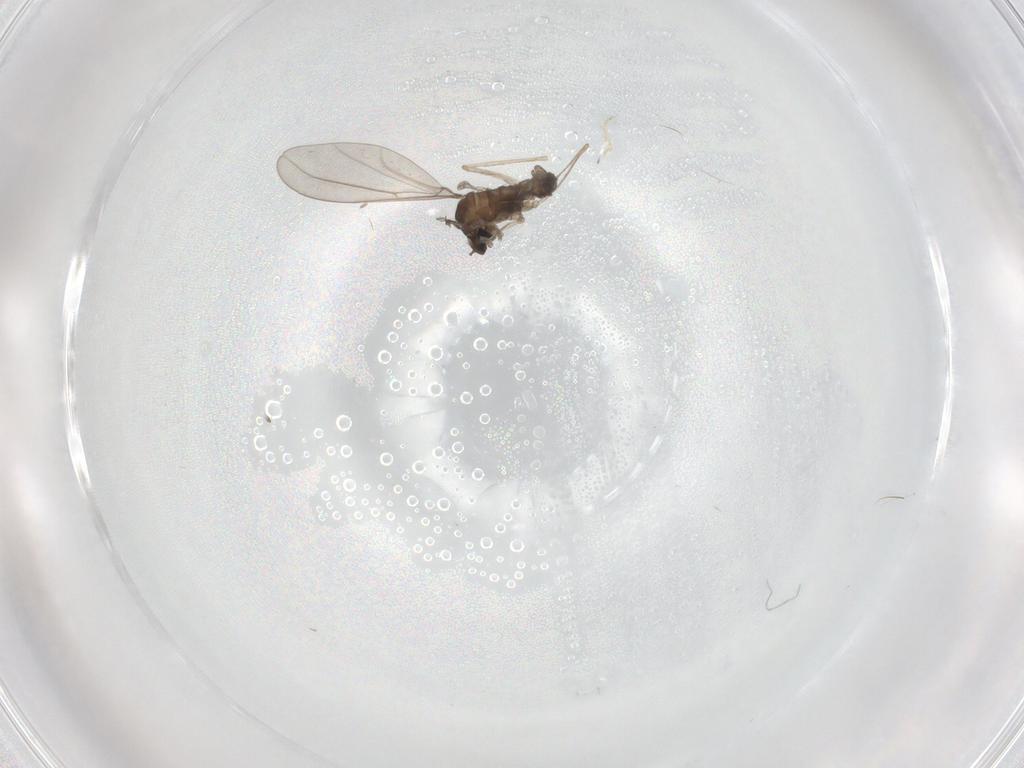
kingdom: Animalia
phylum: Arthropoda
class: Insecta
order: Diptera
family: Cecidomyiidae
